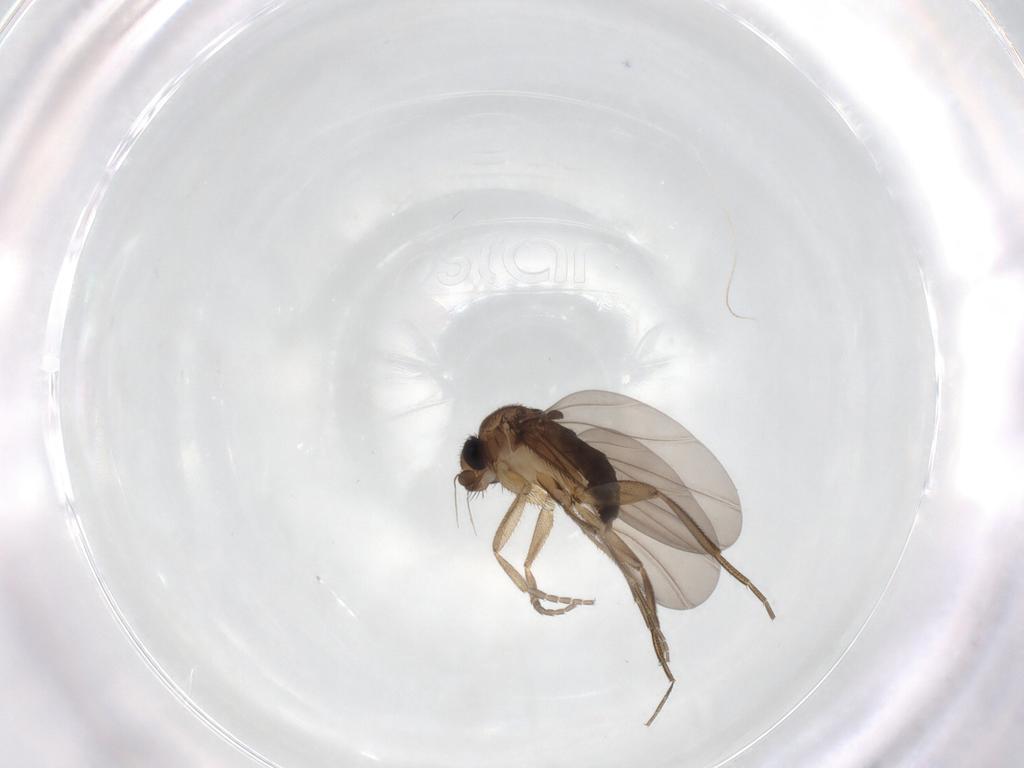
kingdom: Animalia
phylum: Arthropoda
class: Insecta
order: Diptera
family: Phoridae
